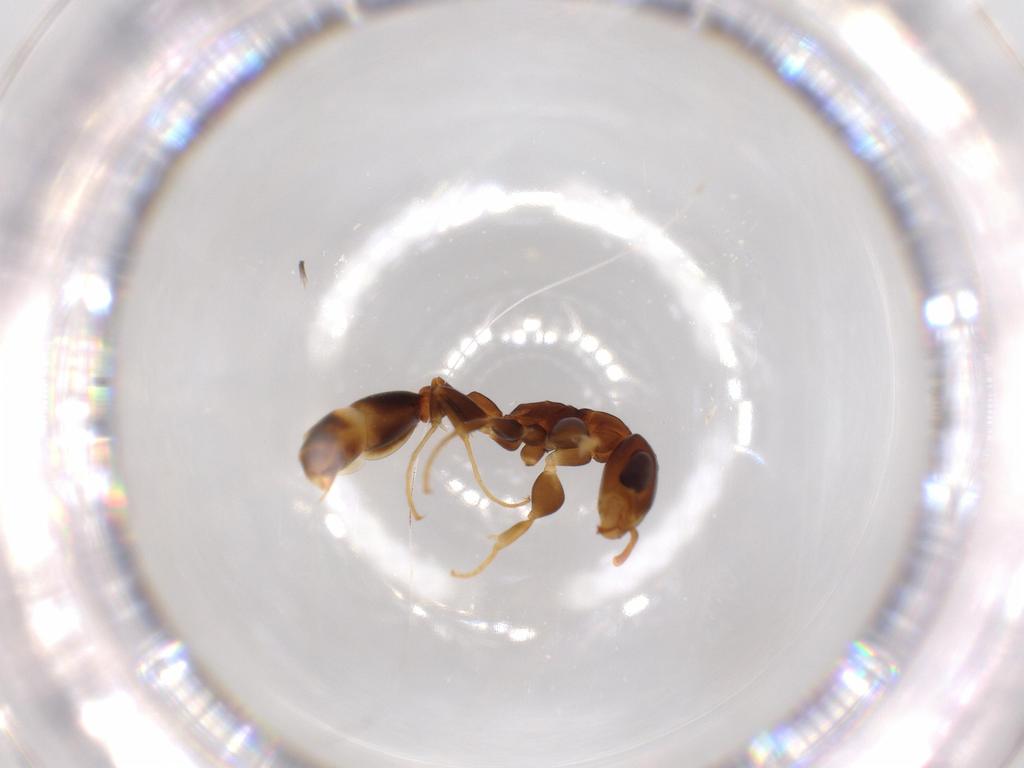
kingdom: Animalia
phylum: Arthropoda
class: Insecta
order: Hymenoptera
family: Formicidae
